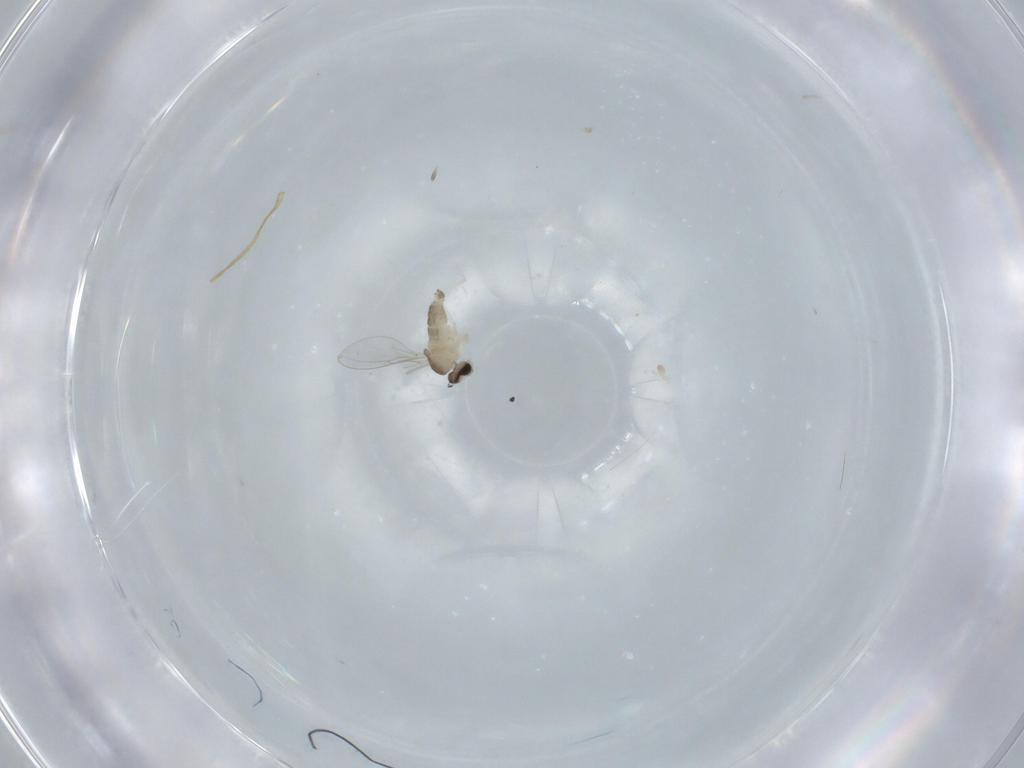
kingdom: Animalia
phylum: Arthropoda
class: Insecta
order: Diptera
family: Cecidomyiidae
